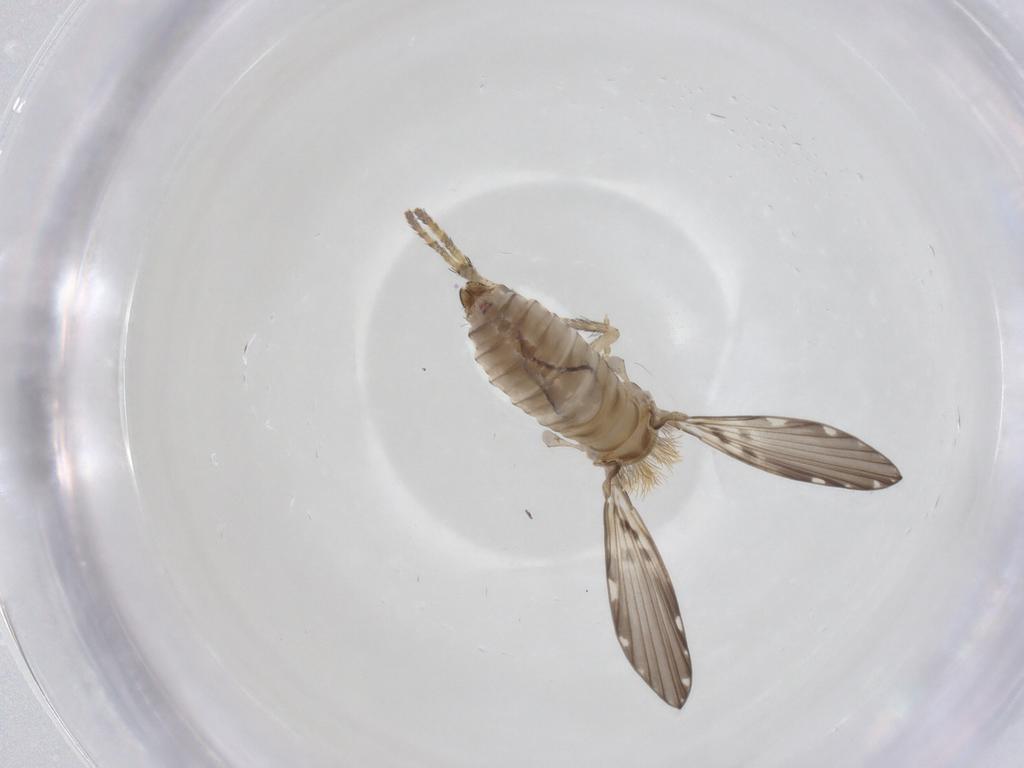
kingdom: Animalia
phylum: Arthropoda
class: Insecta
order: Diptera
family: Psychodidae
